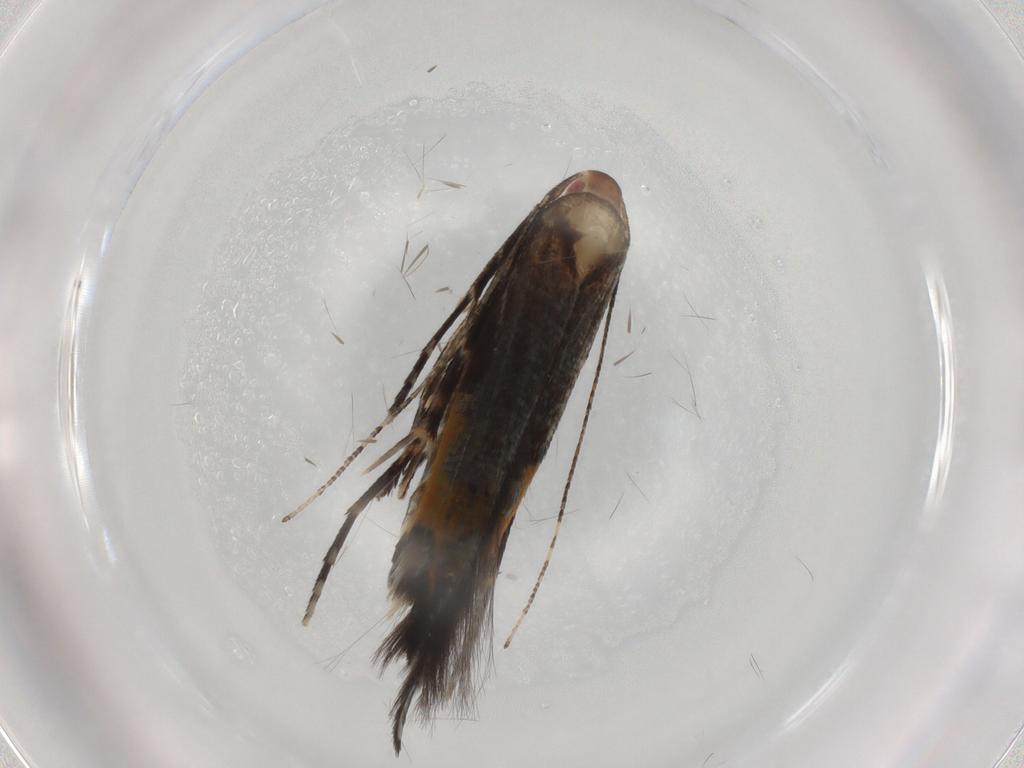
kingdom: Animalia
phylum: Arthropoda
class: Insecta
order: Lepidoptera
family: Cosmopterigidae
